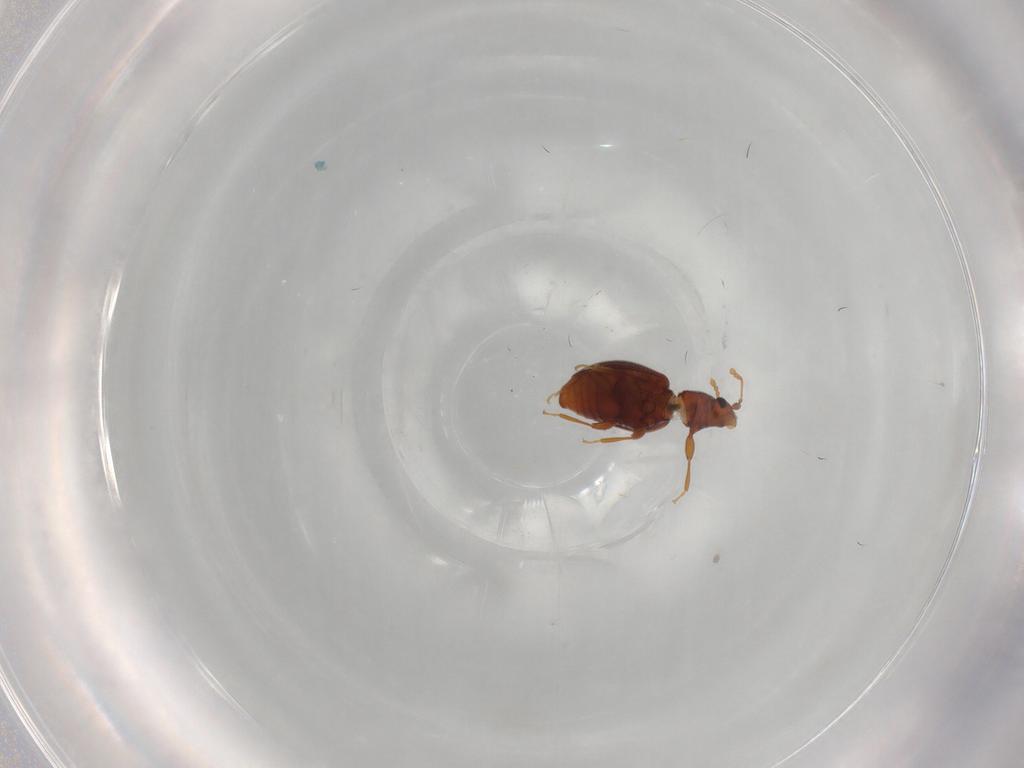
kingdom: Animalia
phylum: Arthropoda
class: Insecta
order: Coleoptera
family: Latridiidae
